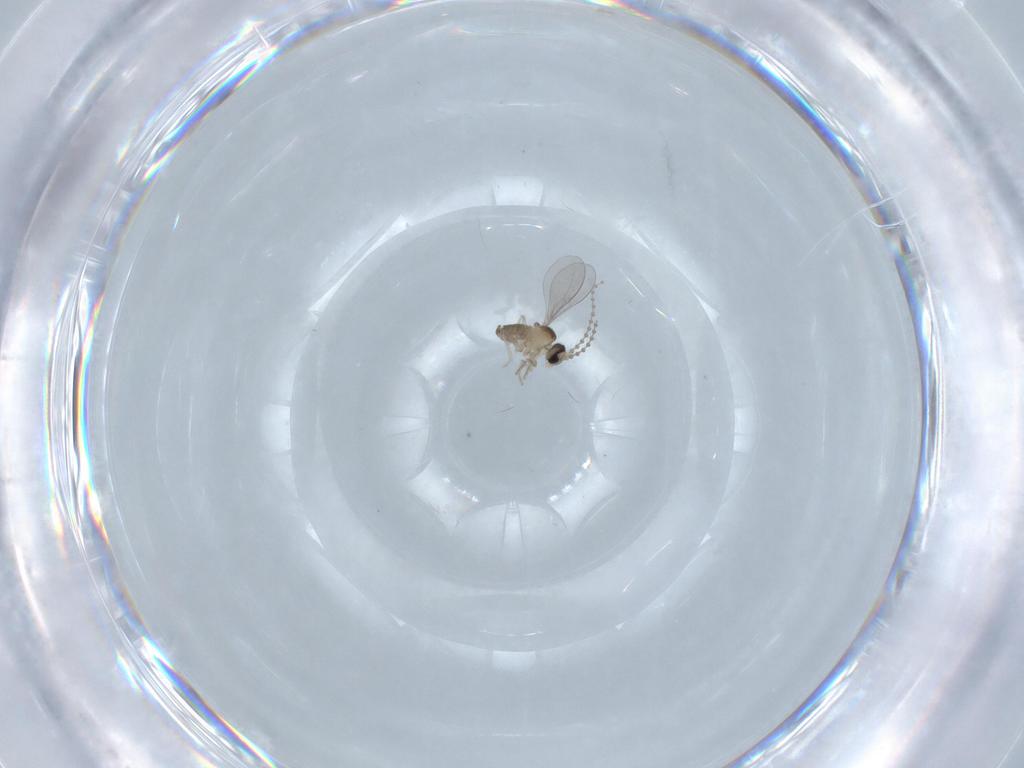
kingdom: Animalia
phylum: Arthropoda
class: Insecta
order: Diptera
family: Cecidomyiidae
